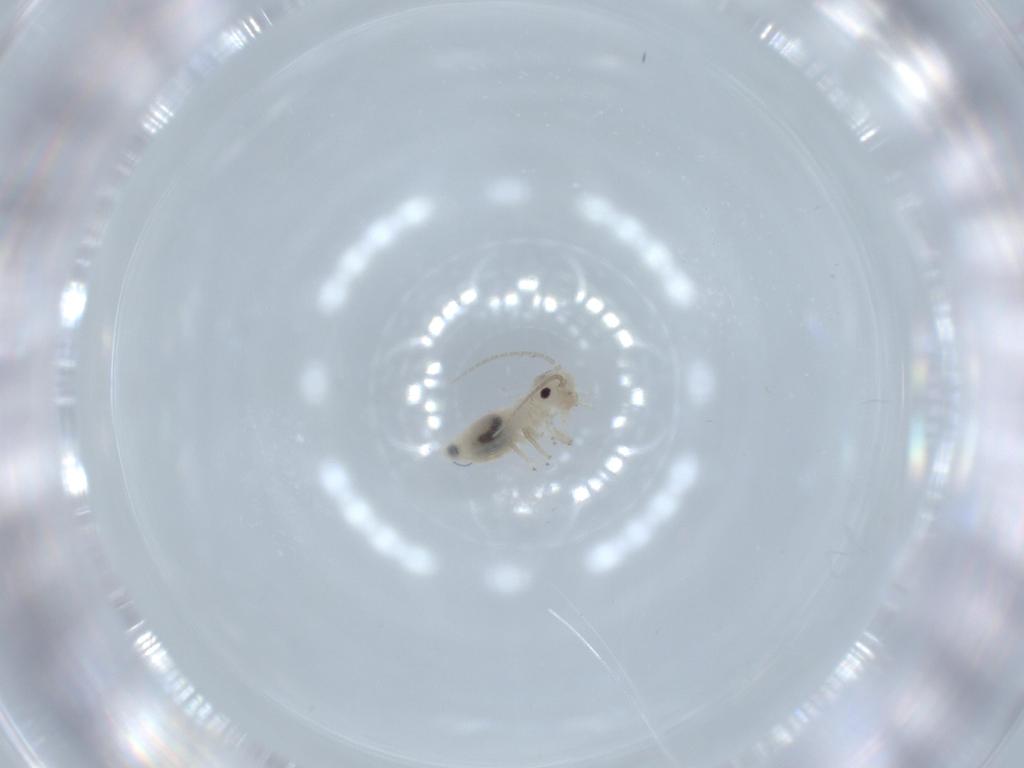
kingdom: Animalia
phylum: Arthropoda
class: Insecta
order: Psocodea
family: Caeciliusidae
